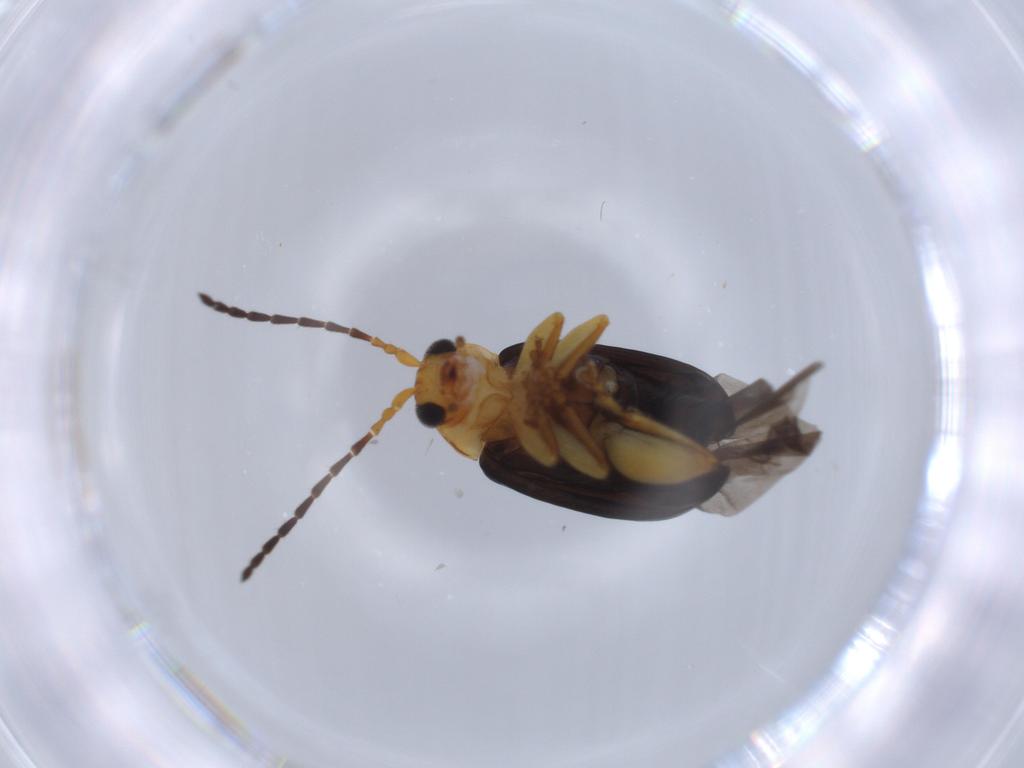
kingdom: Animalia
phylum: Arthropoda
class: Insecta
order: Coleoptera
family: Chrysomelidae
